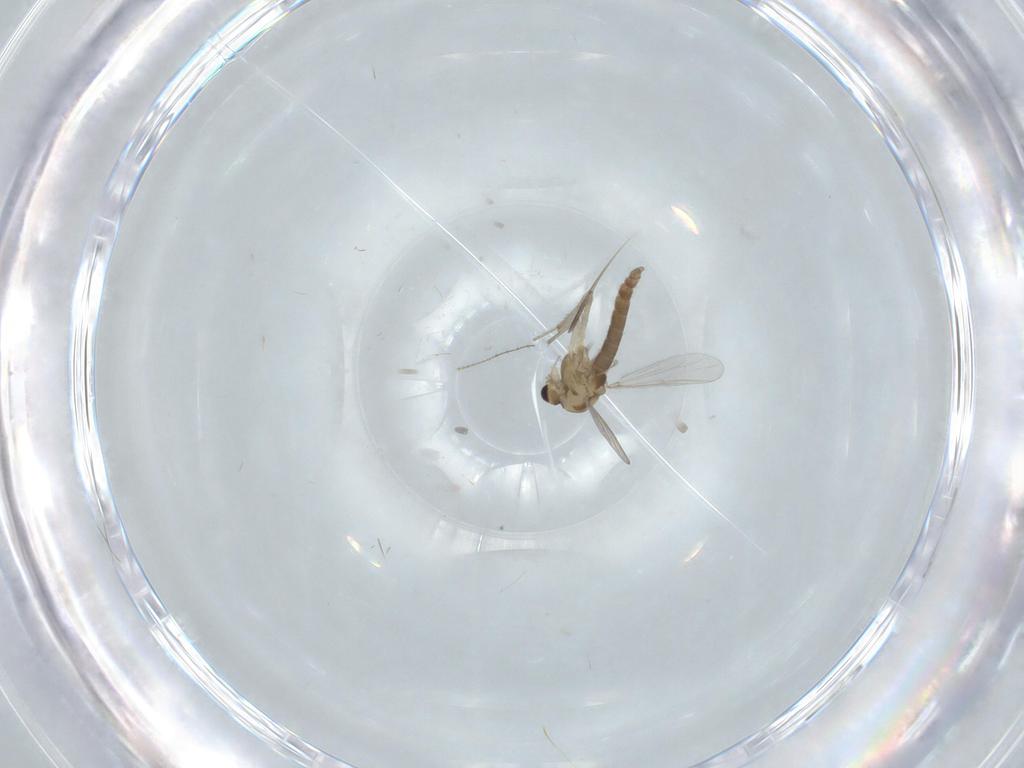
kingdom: Animalia
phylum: Arthropoda
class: Insecta
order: Diptera
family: Chironomidae
